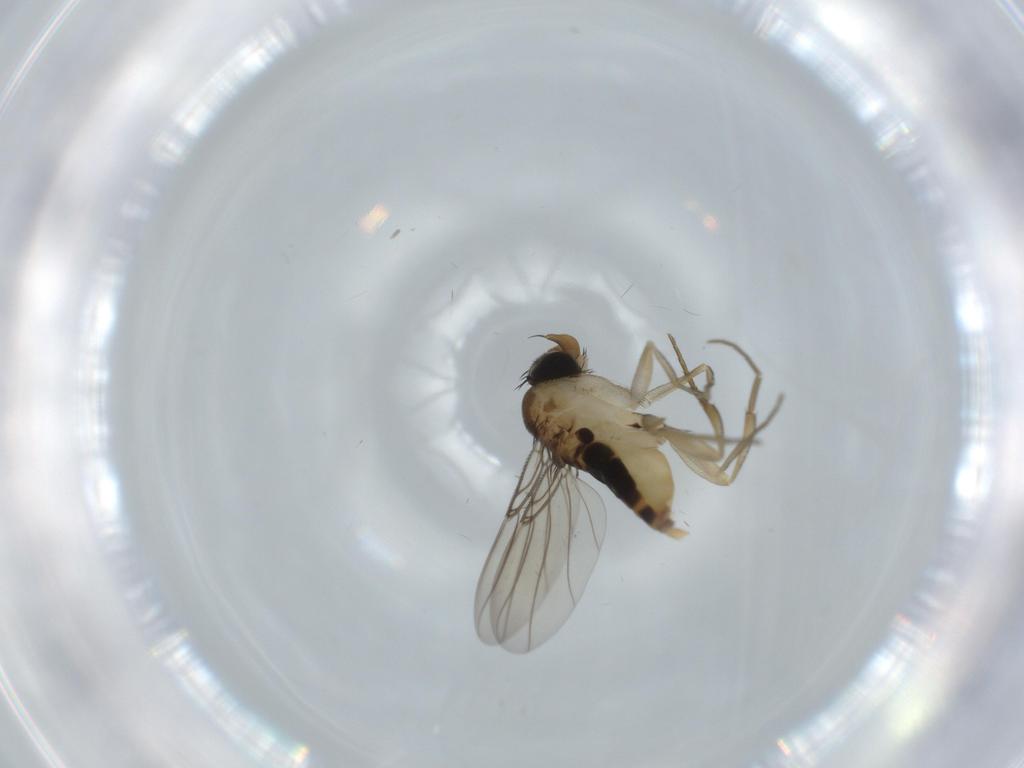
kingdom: Animalia
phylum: Arthropoda
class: Insecta
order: Diptera
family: Phoridae
